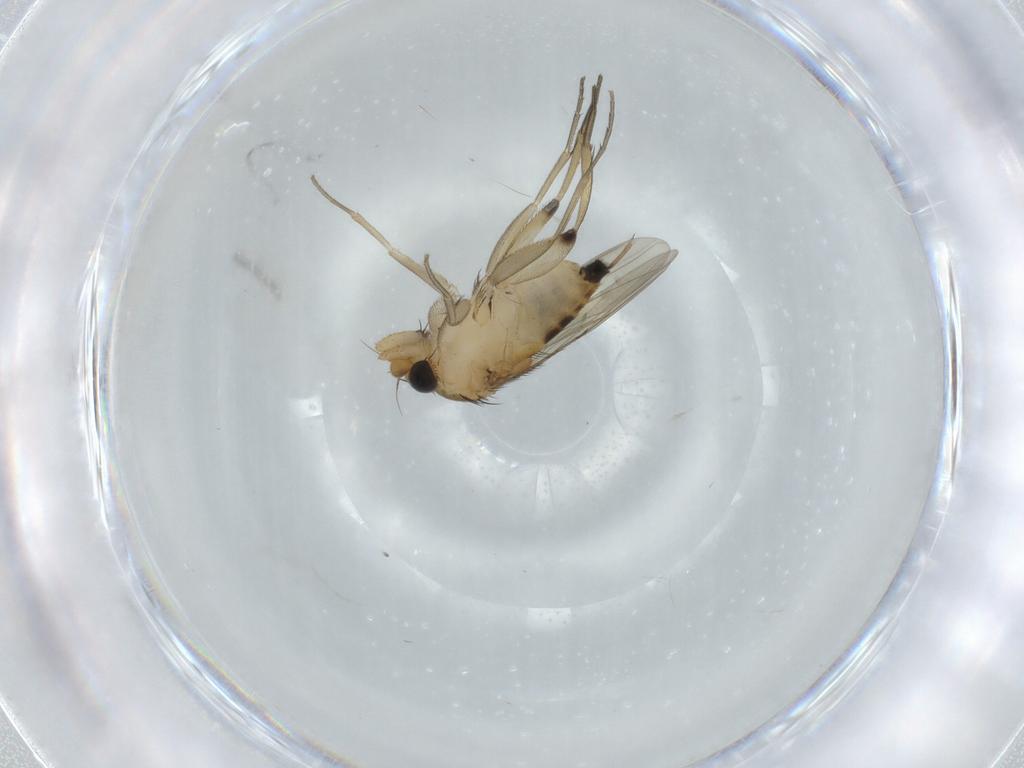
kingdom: Animalia
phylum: Arthropoda
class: Insecta
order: Diptera
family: Phoridae
